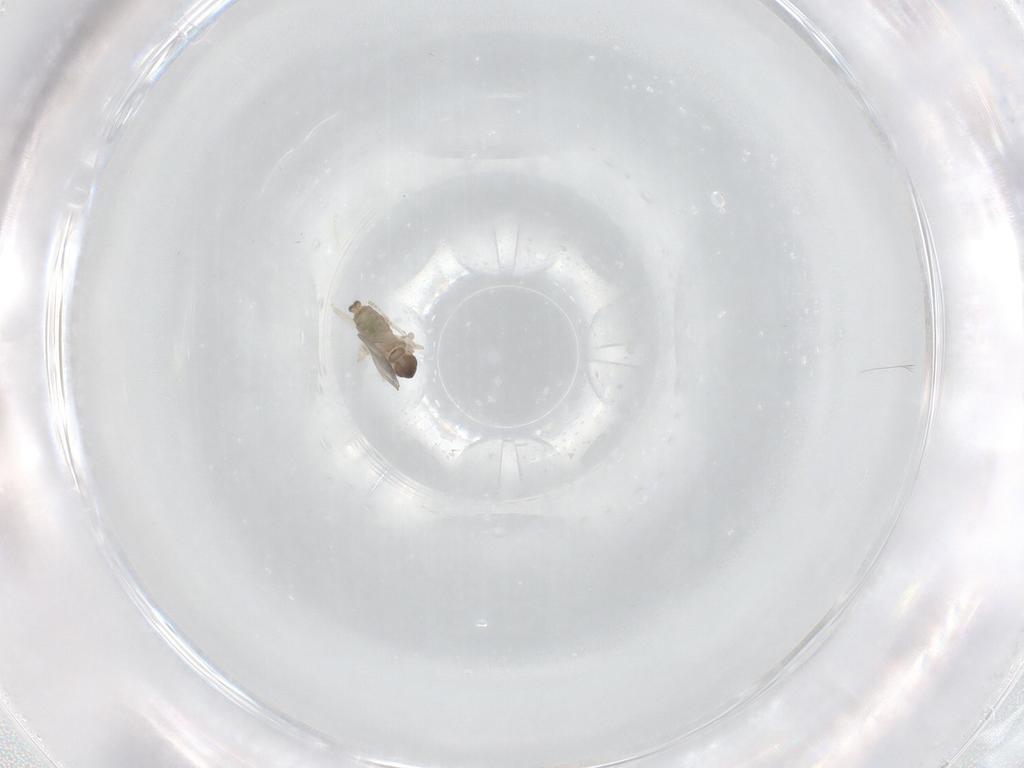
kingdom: Animalia
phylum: Arthropoda
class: Insecta
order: Diptera
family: Cecidomyiidae
